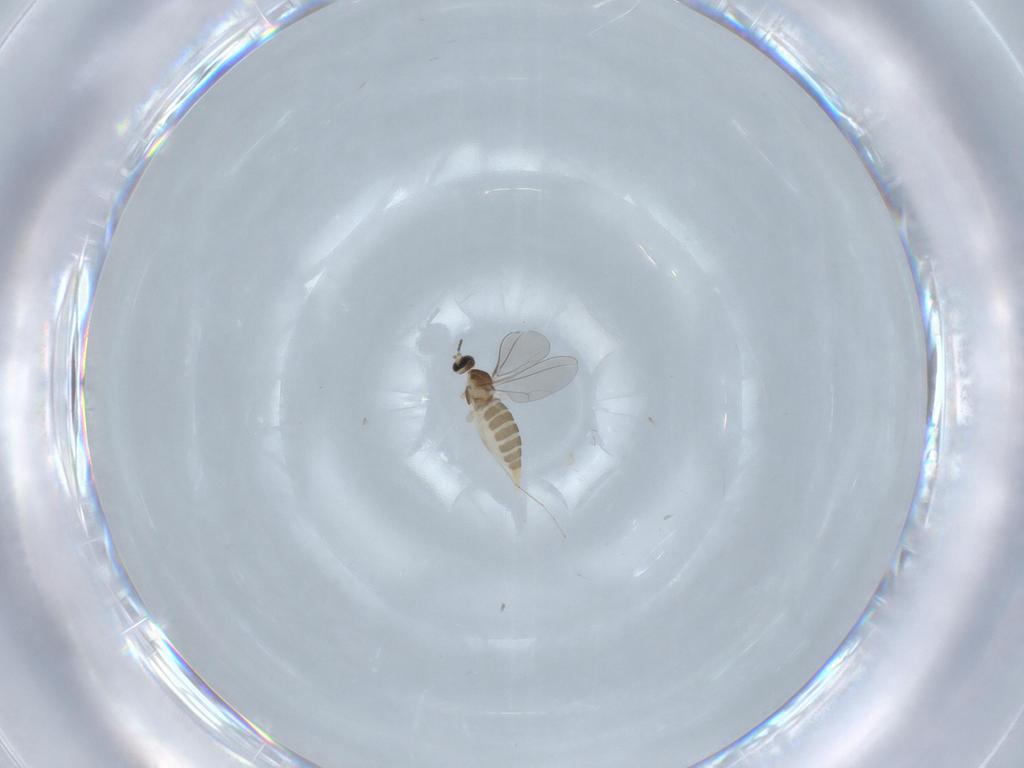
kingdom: Animalia
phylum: Arthropoda
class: Insecta
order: Diptera
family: Cecidomyiidae
